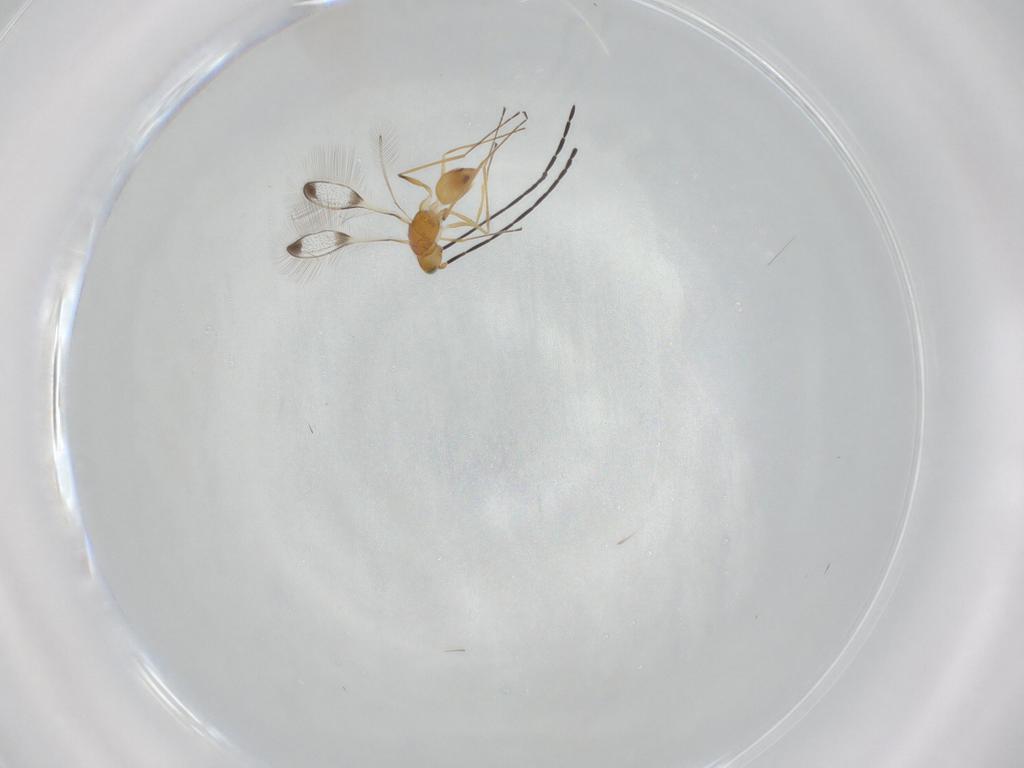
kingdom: Animalia
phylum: Arthropoda
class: Insecta
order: Hymenoptera
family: Mymaridae
